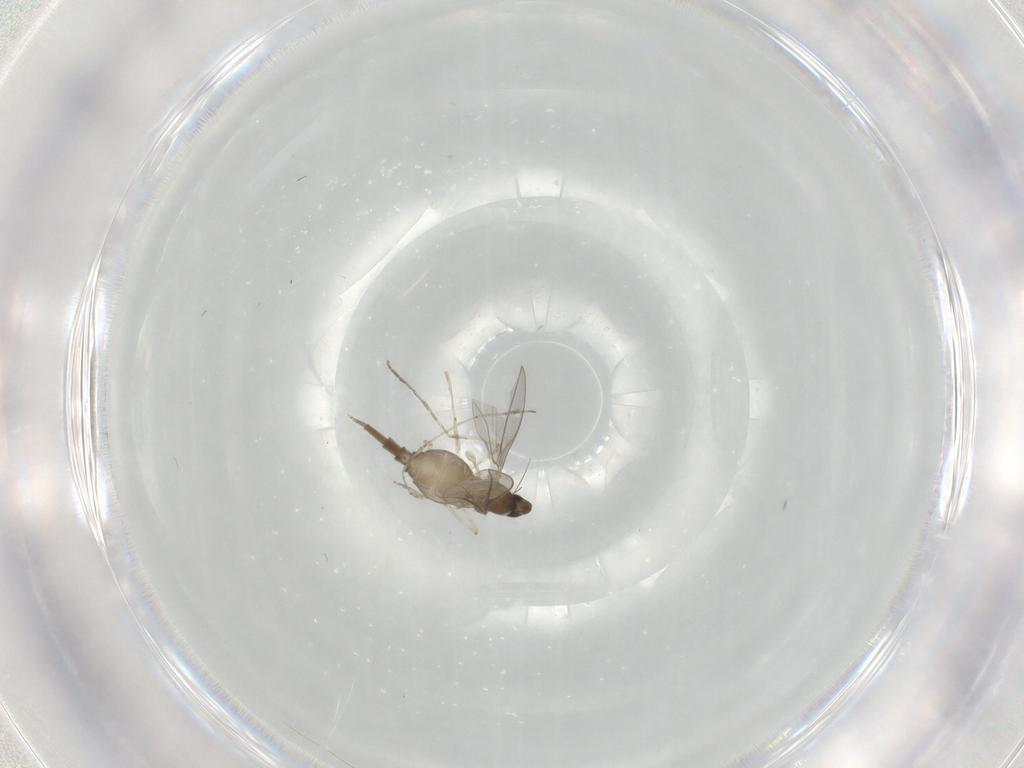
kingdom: Animalia
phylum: Arthropoda
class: Insecta
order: Diptera
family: Cecidomyiidae
